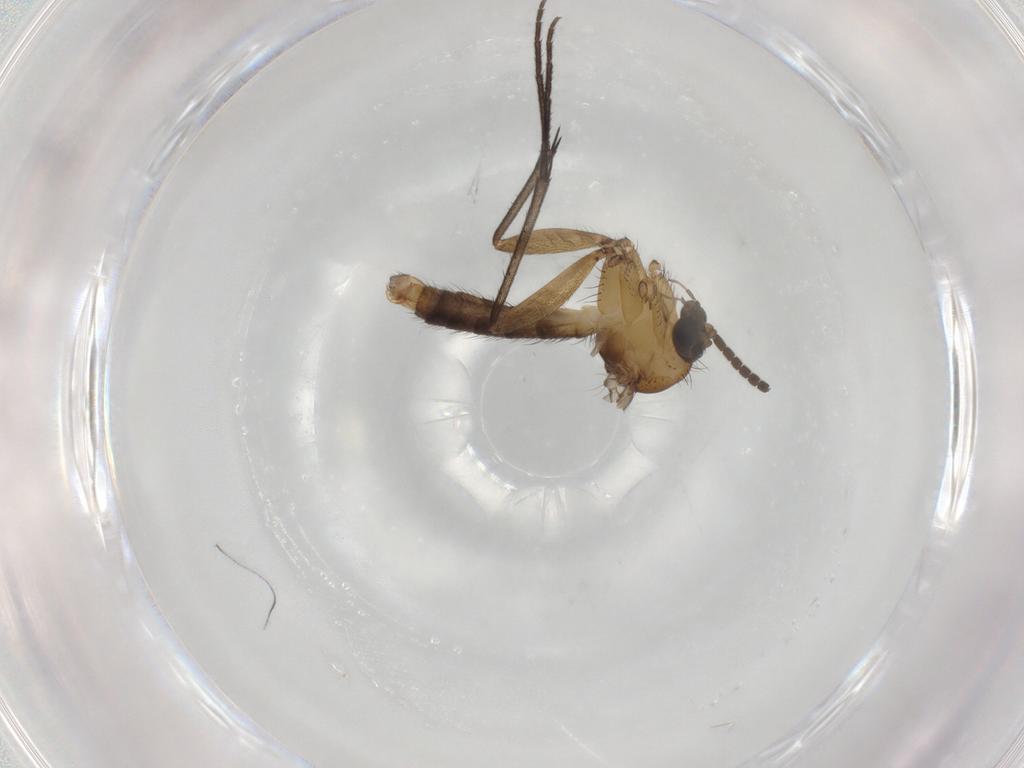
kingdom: Animalia
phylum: Arthropoda
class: Insecta
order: Diptera
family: Mycetophilidae
